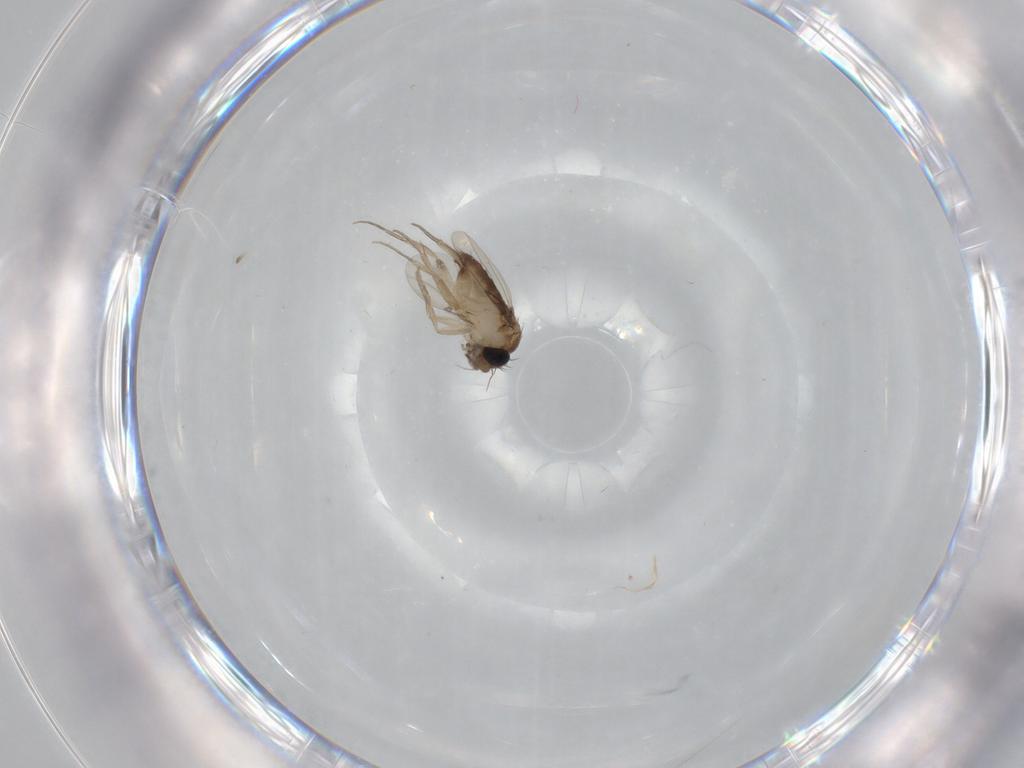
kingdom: Animalia
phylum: Arthropoda
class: Insecta
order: Diptera
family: Phoridae
